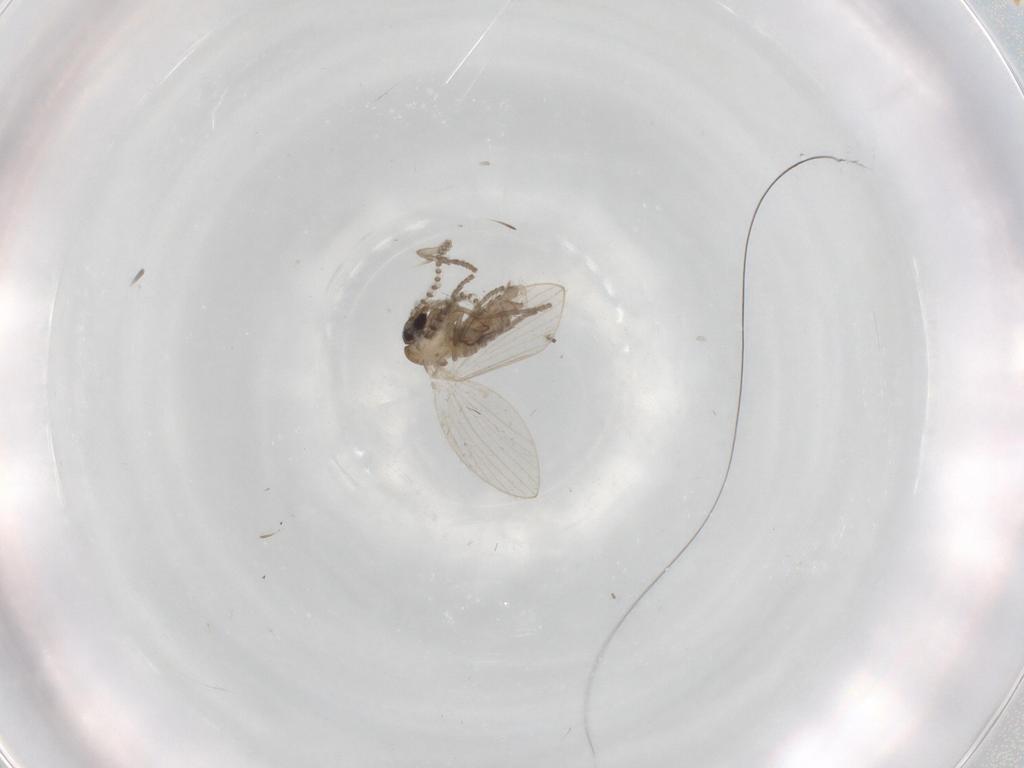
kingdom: Animalia
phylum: Arthropoda
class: Insecta
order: Diptera
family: Psychodidae
